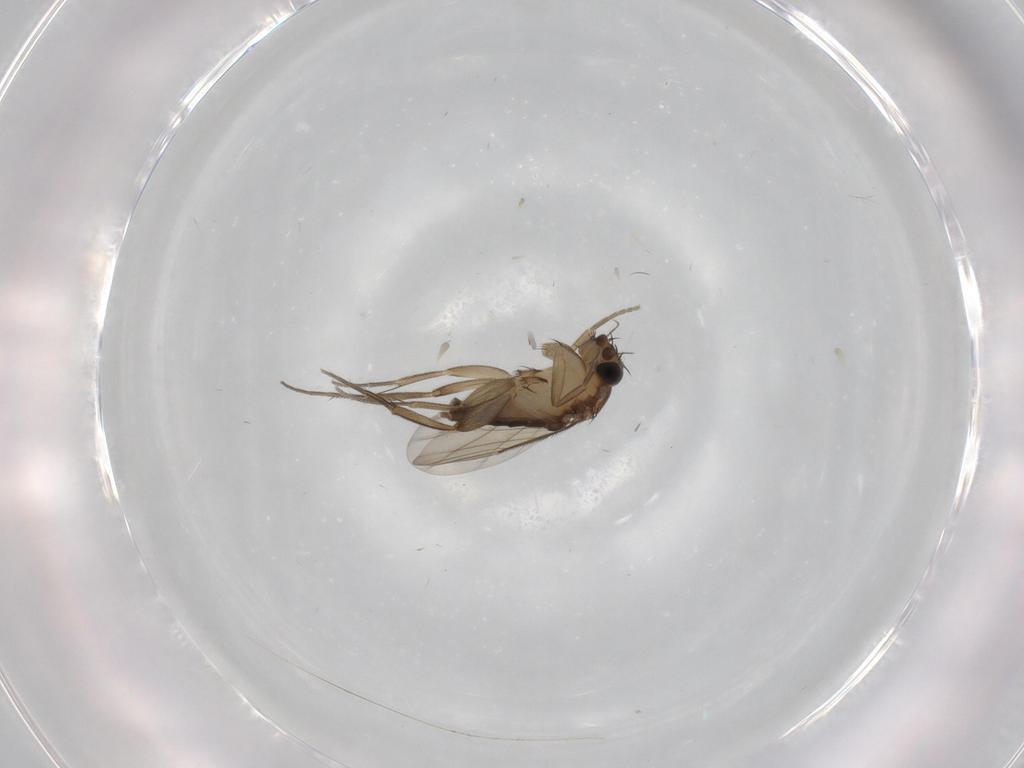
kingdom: Animalia
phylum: Arthropoda
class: Insecta
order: Diptera
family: Phoridae
